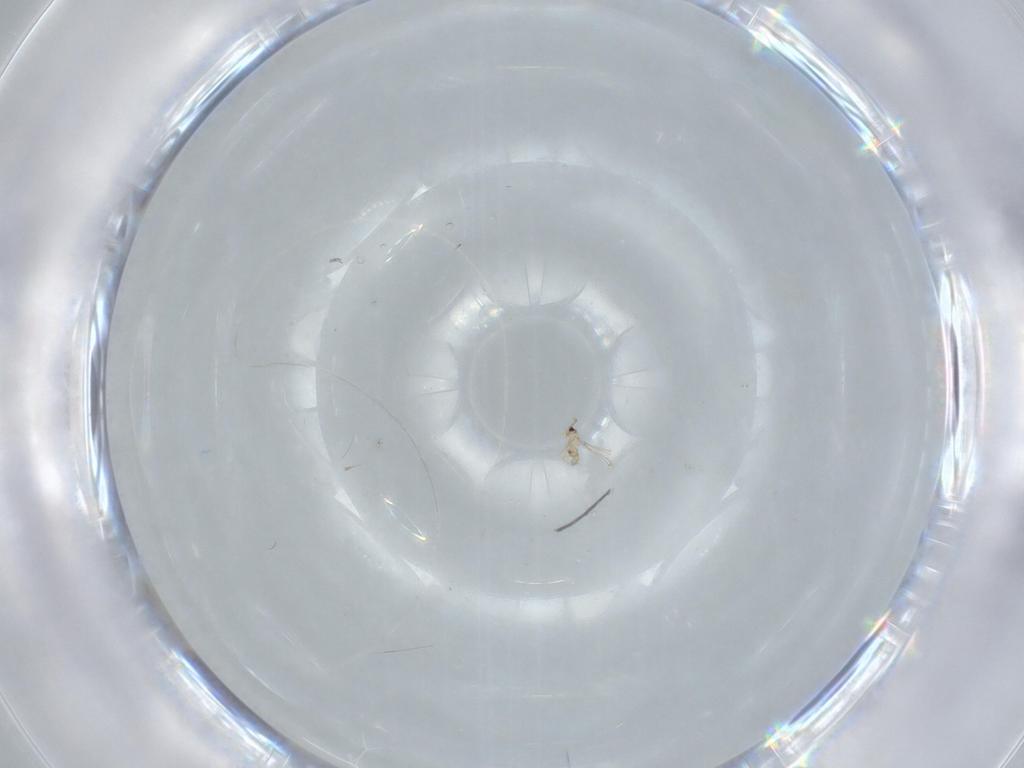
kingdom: Animalia
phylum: Arthropoda
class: Insecta
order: Hymenoptera
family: Mymaridae
